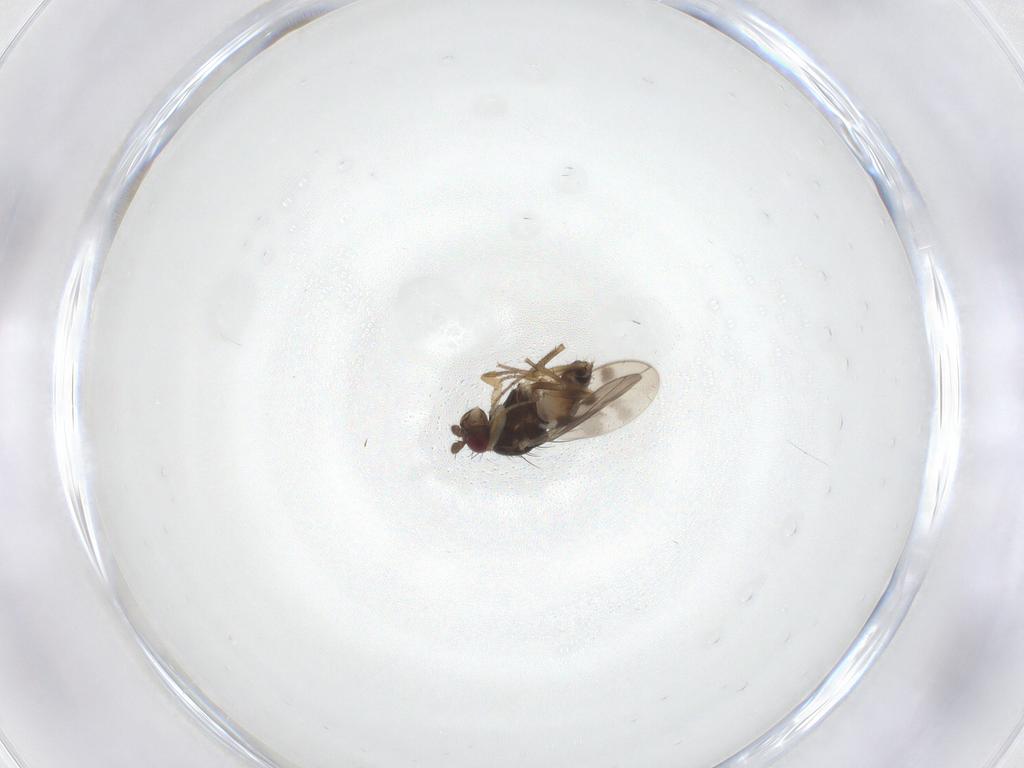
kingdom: Animalia
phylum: Arthropoda
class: Insecta
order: Diptera
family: Sphaeroceridae
